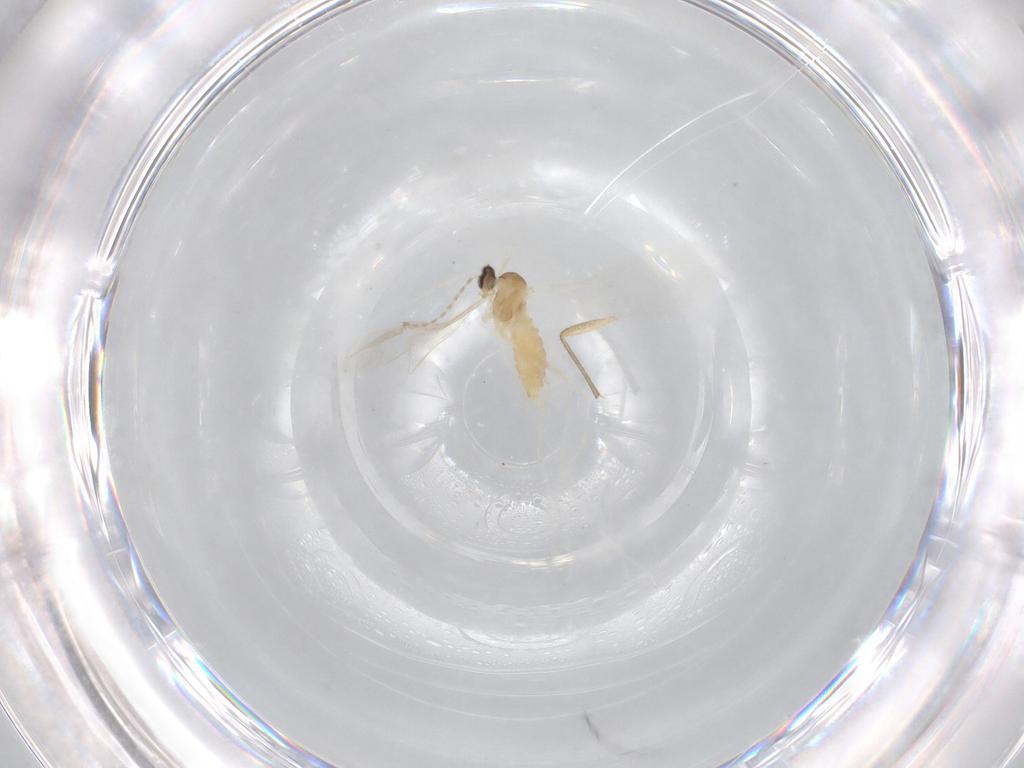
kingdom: Animalia
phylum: Arthropoda
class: Insecta
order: Diptera
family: Cecidomyiidae
